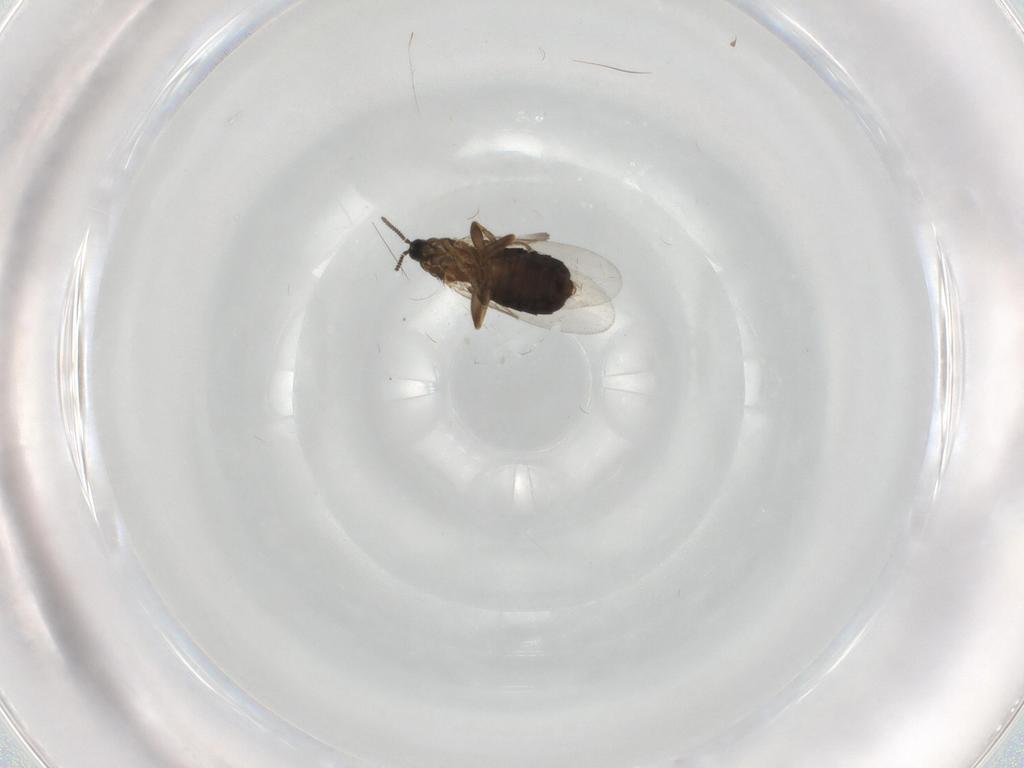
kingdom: Animalia
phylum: Arthropoda
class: Insecta
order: Diptera
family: Scatopsidae
